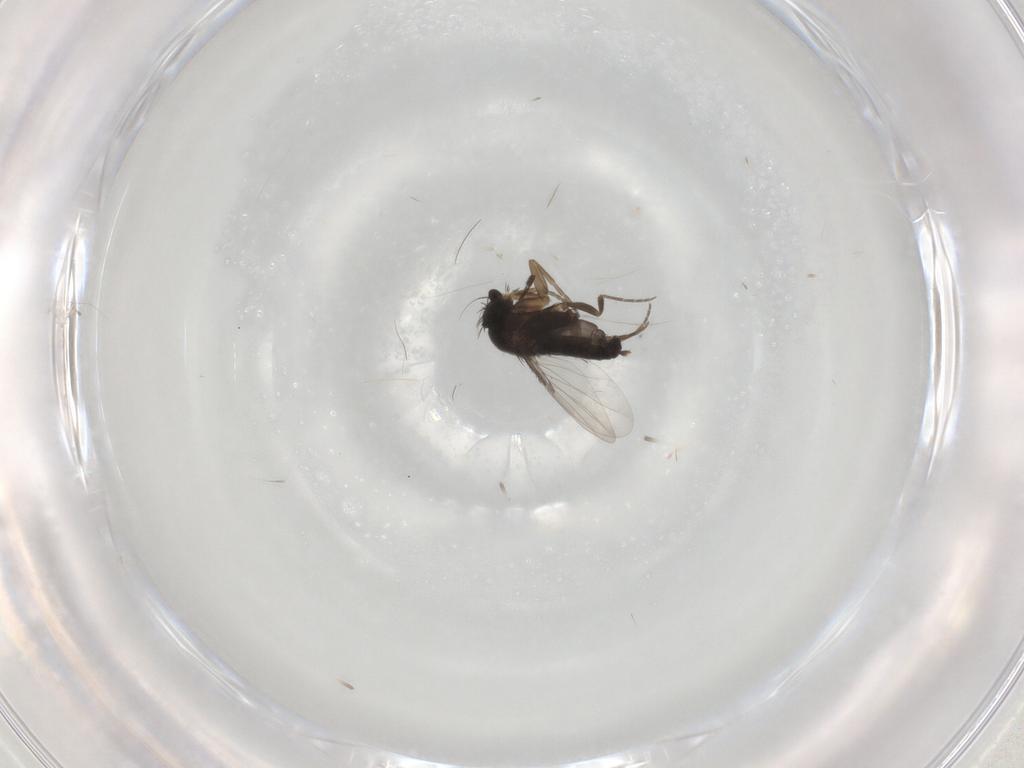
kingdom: Animalia
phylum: Arthropoda
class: Insecta
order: Diptera
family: Phoridae
